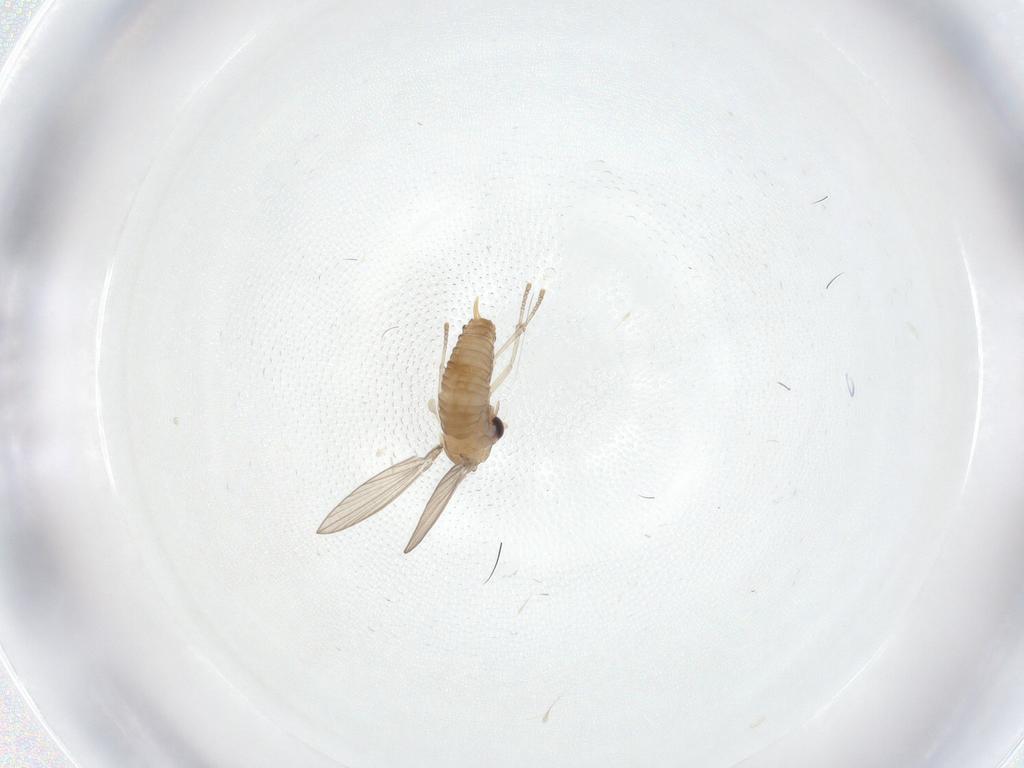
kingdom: Animalia
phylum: Arthropoda
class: Insecta
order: Diptera
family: Psychodidae
